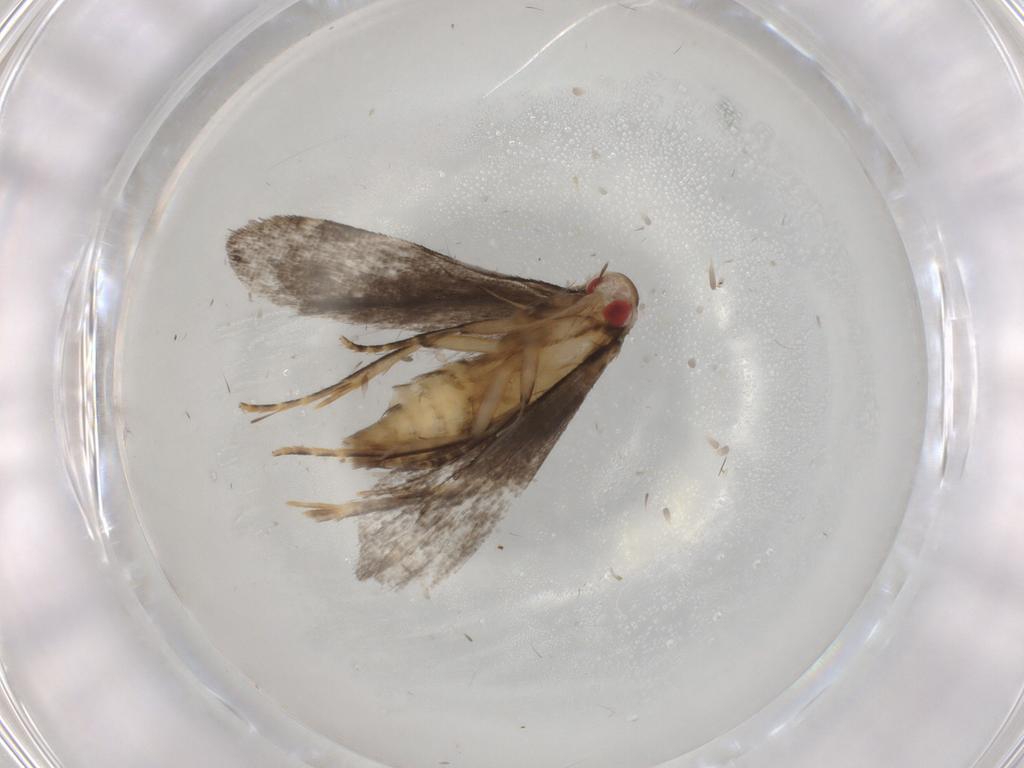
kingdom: Animalia
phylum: Arthropoda
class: Insecta
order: Lepidoptera
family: Gelechiidae
